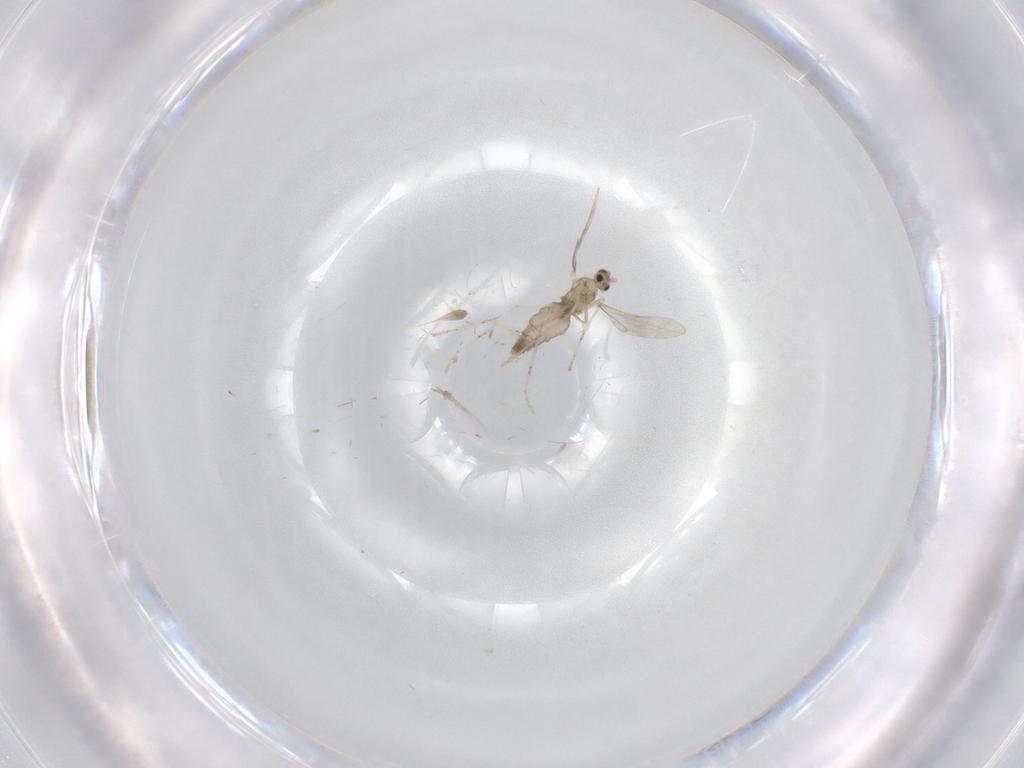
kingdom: Animalia
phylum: Arthropoda
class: Insecta
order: Diptera
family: Cecidomyiidae
